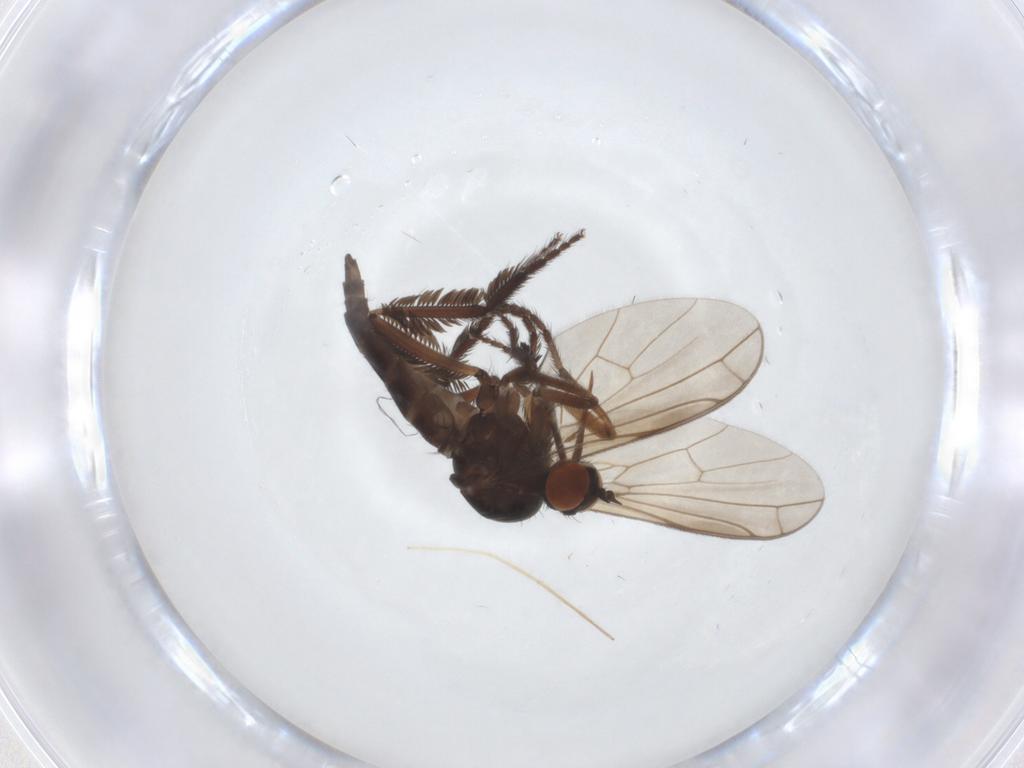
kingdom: Animalia
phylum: Arthropoda
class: Insecta
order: Diptera
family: Empididae
